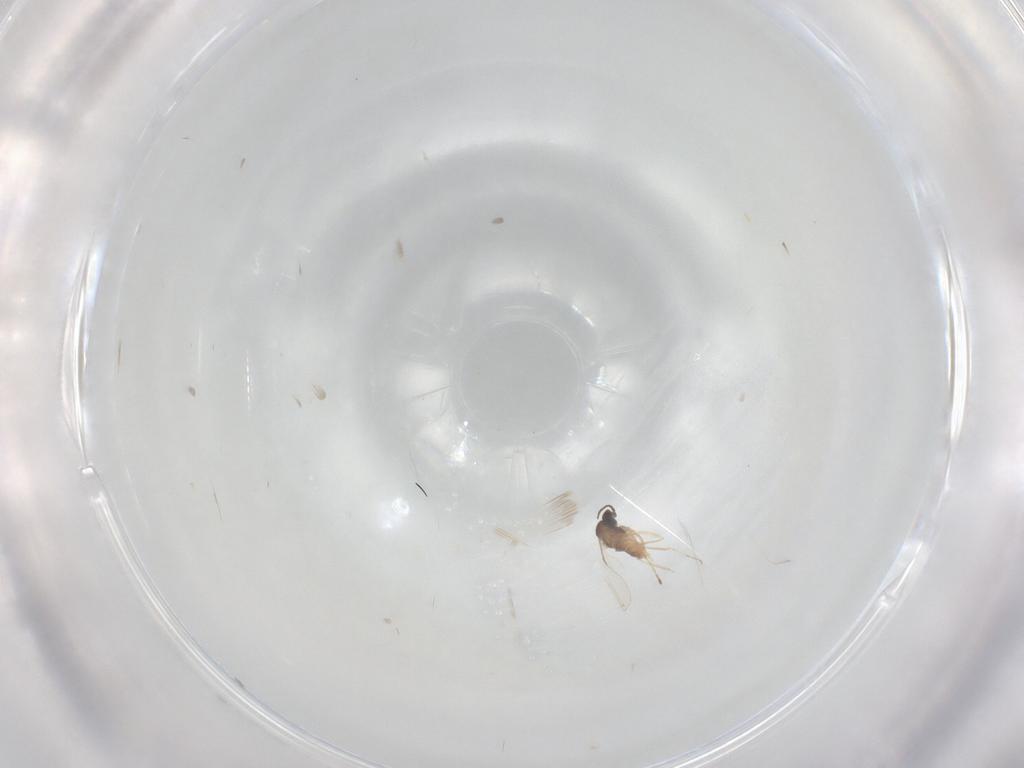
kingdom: Animalia
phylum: Arthropoda
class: Insecta
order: Diptera
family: Cecidomyiidae
